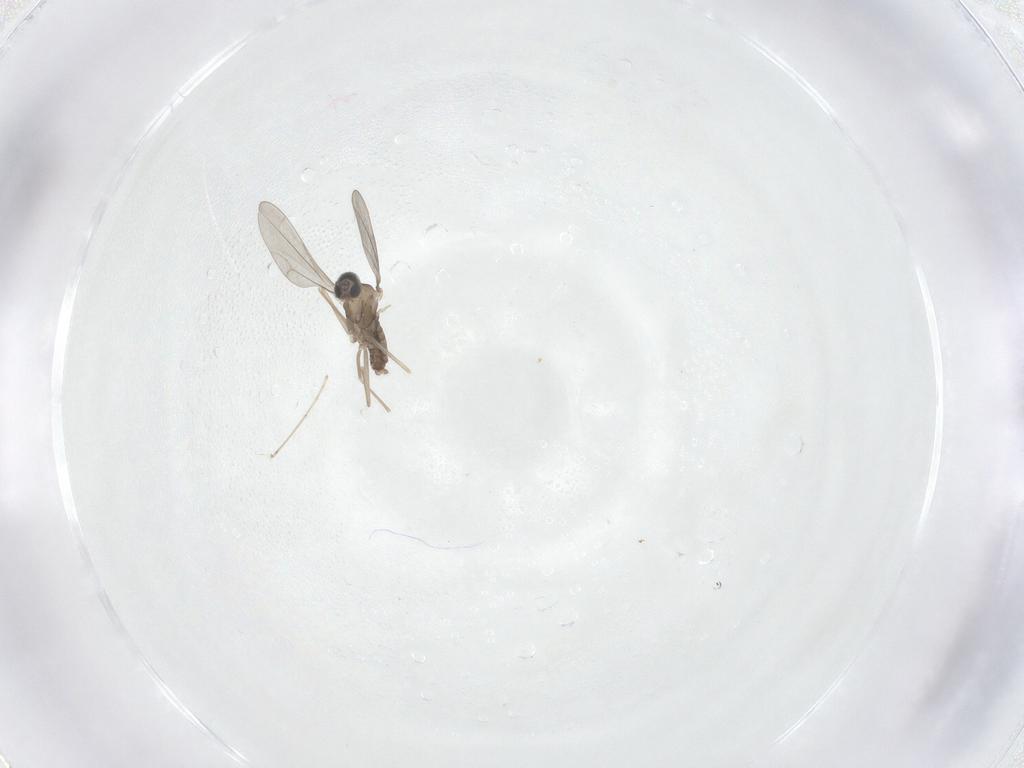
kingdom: Animalia
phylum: Arthropoda
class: Insecta
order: Diptera
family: Cecidomyiidae
